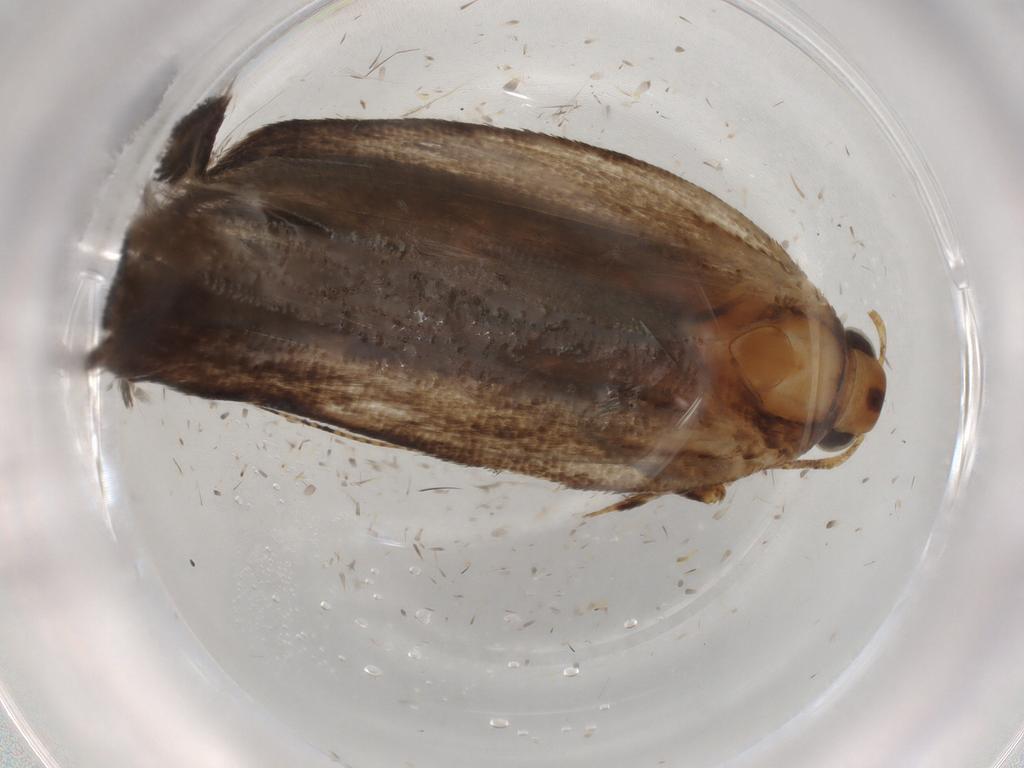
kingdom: Animalia
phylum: Arthropoda
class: Insecta
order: Lepidoptera
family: Gelechiidae
